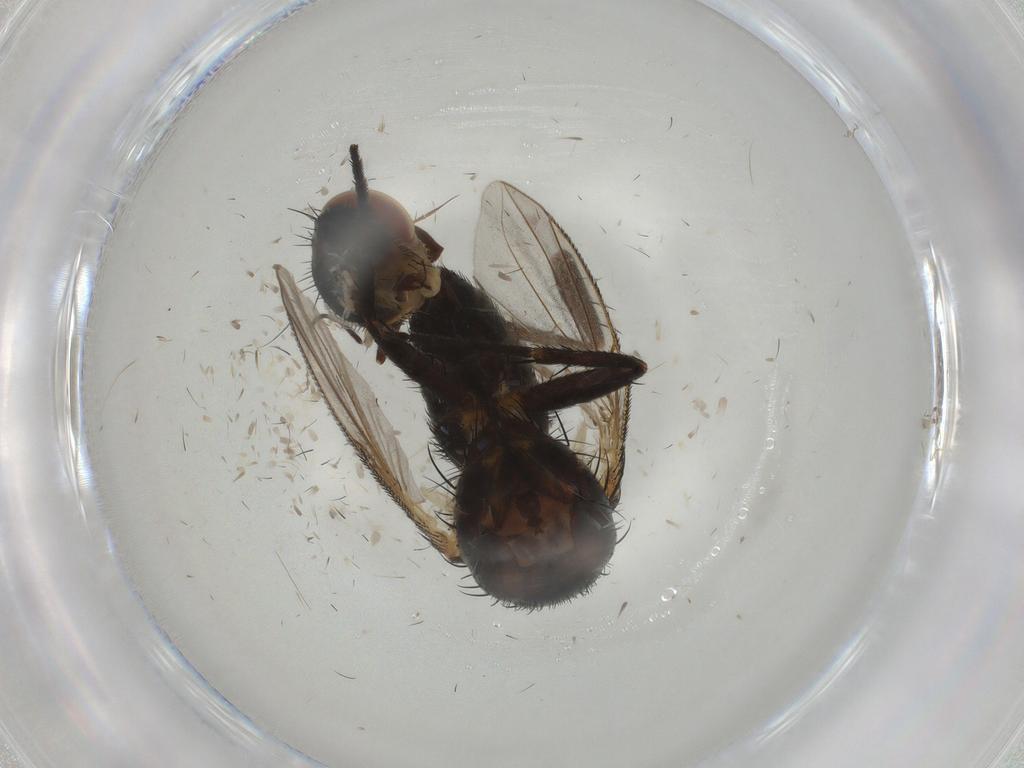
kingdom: Animalia
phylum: Arthropoda
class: Insecta
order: Diptera
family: Tachinidae
